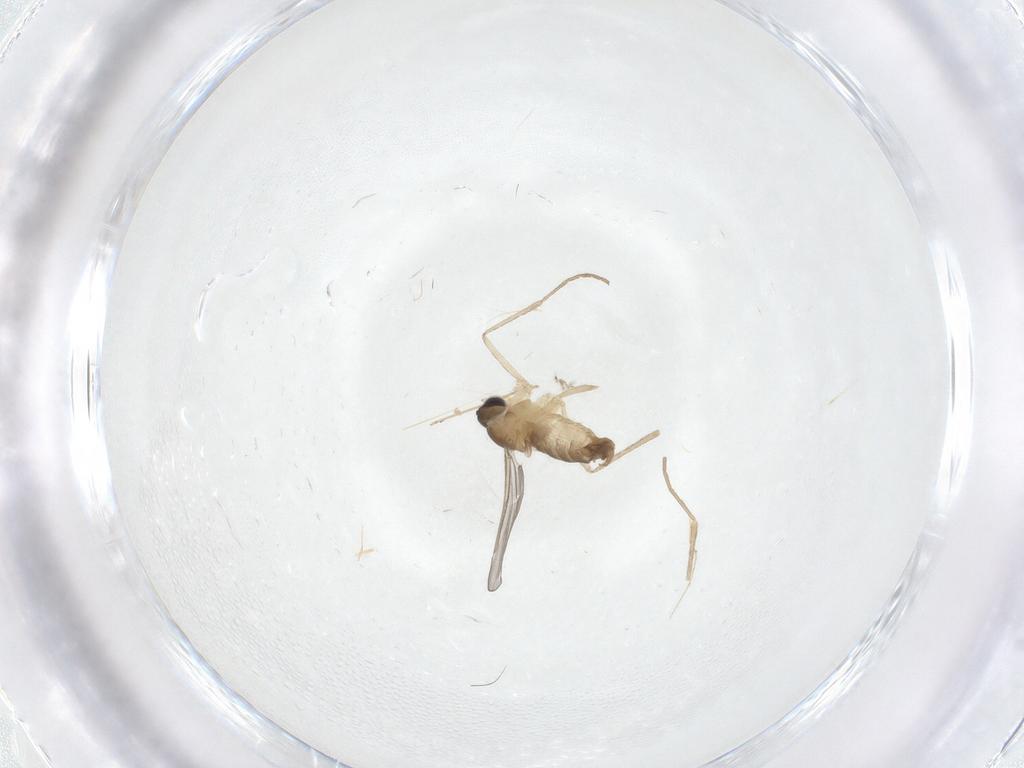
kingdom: Animalia
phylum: Arthropoda
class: Insecta
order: Diptera
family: Cecidomyiidae
